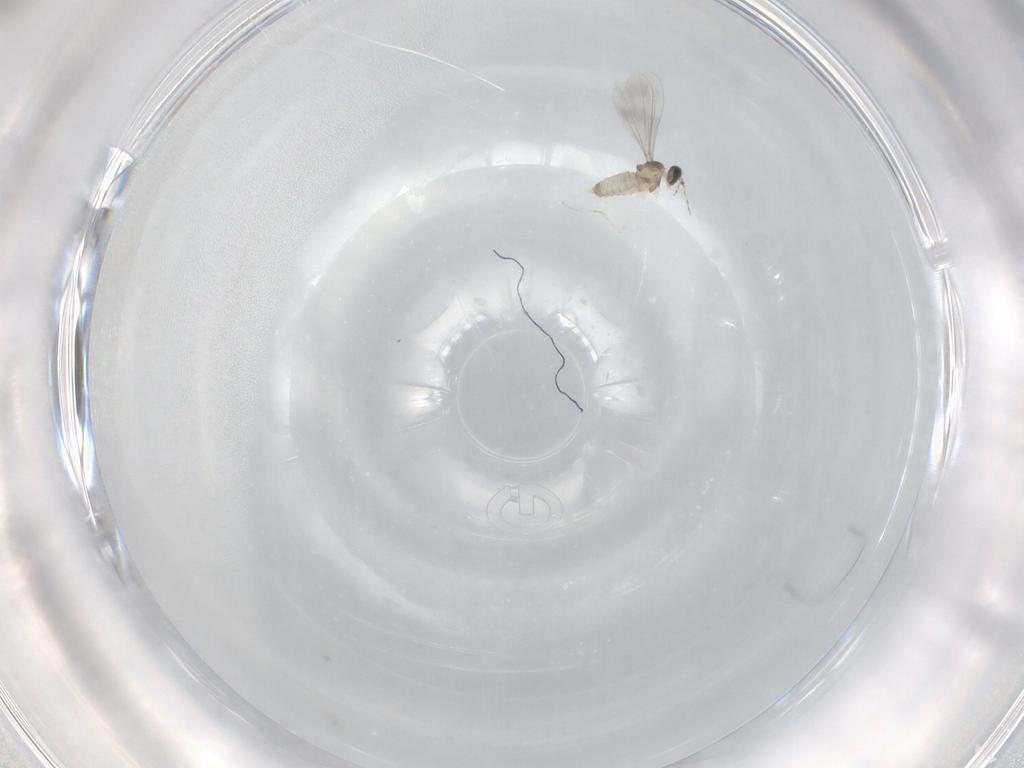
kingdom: Animalia
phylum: Arthropoda
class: Insecta
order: Diptera
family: Cecidomyiidae
